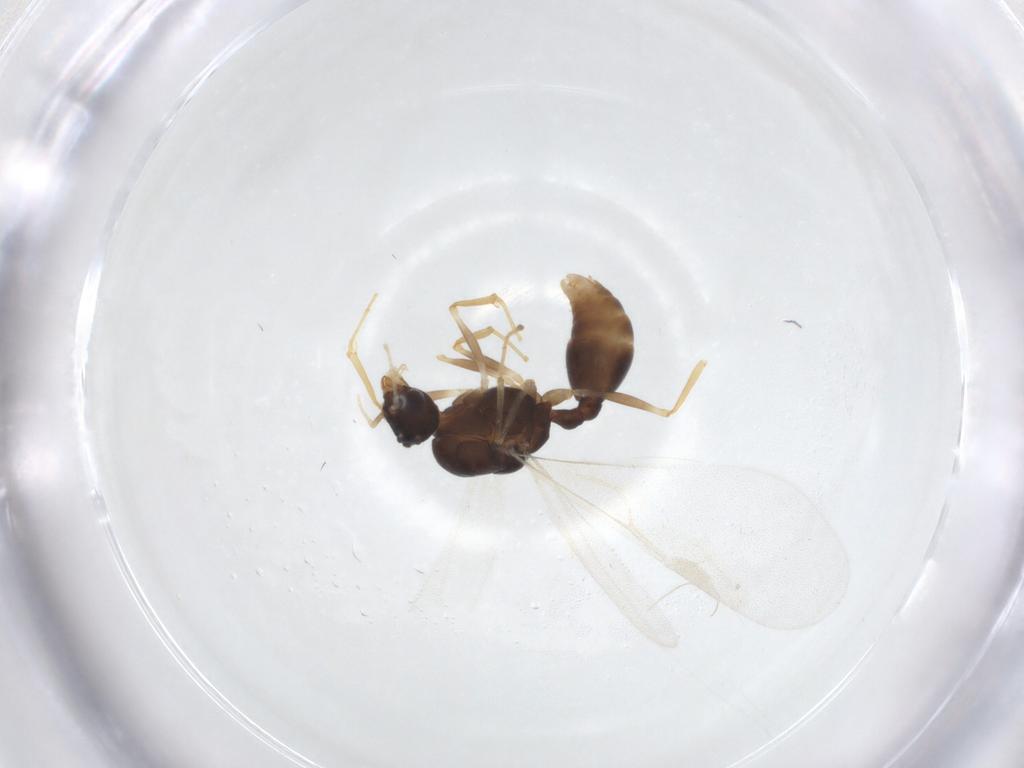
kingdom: Animalia
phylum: Arthropoda
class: Insecta
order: Hymenoptera
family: Formicidae
